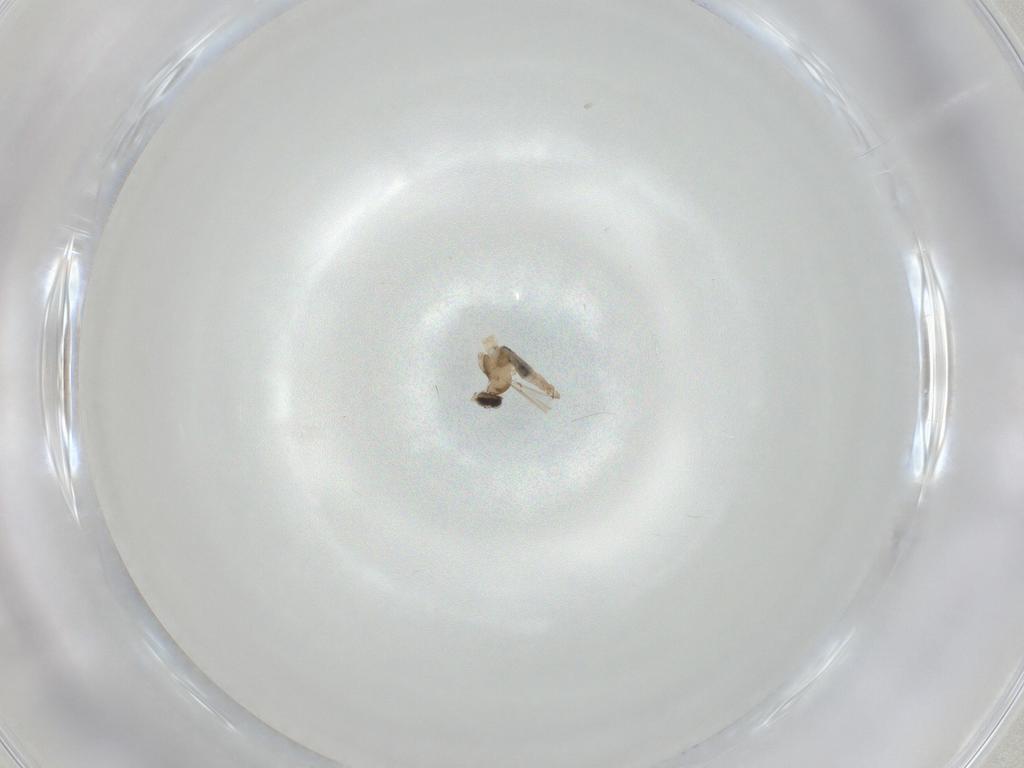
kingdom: Animalia
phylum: Arthropoda
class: Insecta
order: Diptera
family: Cecidomyiidae
